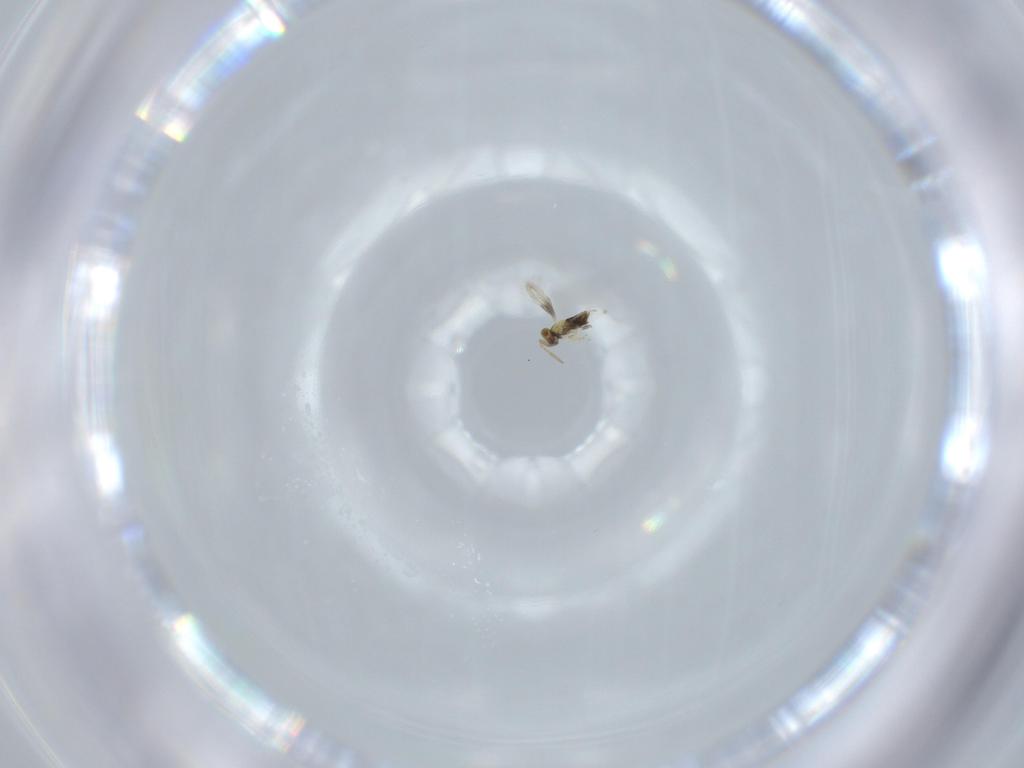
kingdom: Animalia
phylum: Arthropoda
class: Insecta
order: Hymenoptera
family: Aphelinidae
